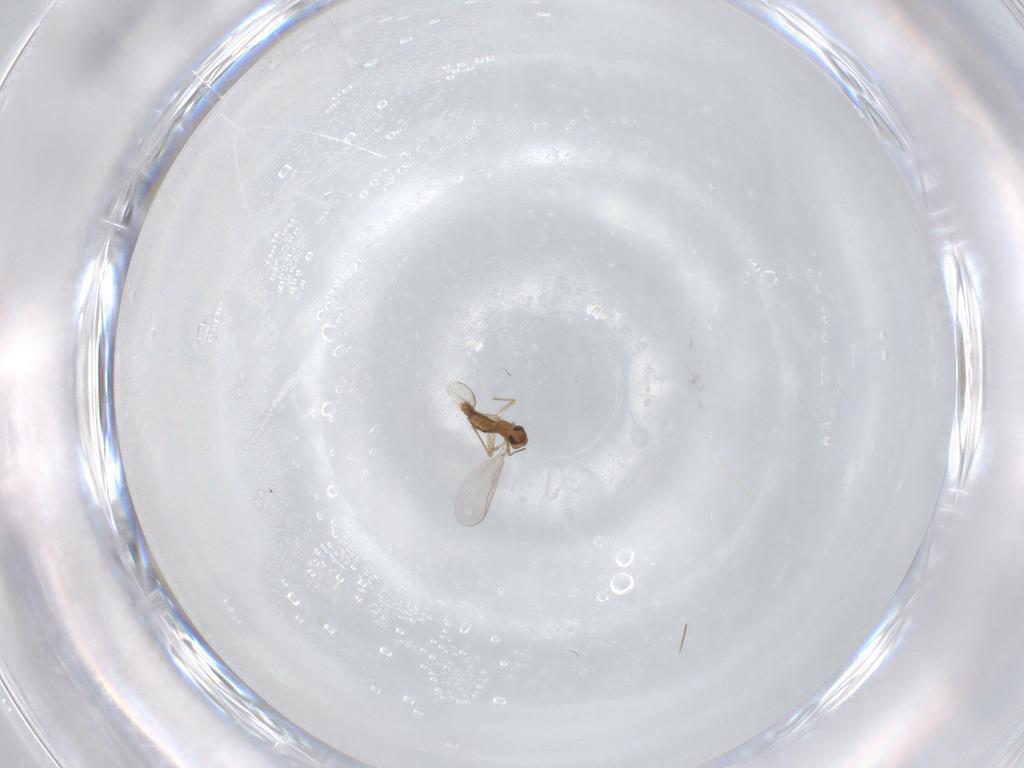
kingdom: Animalia
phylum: Arthropoda
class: Insecta
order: Diptera
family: Chironomidae
